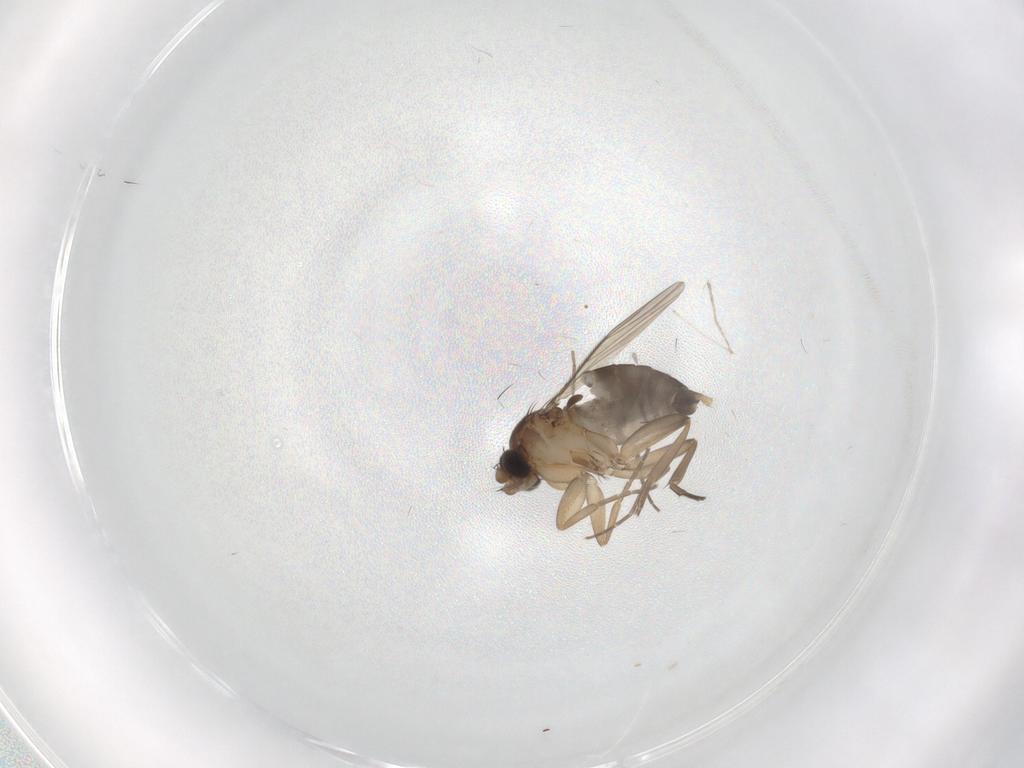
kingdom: Animalia
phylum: Arthropoda
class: Insecta
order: Diptera
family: Phoridae
